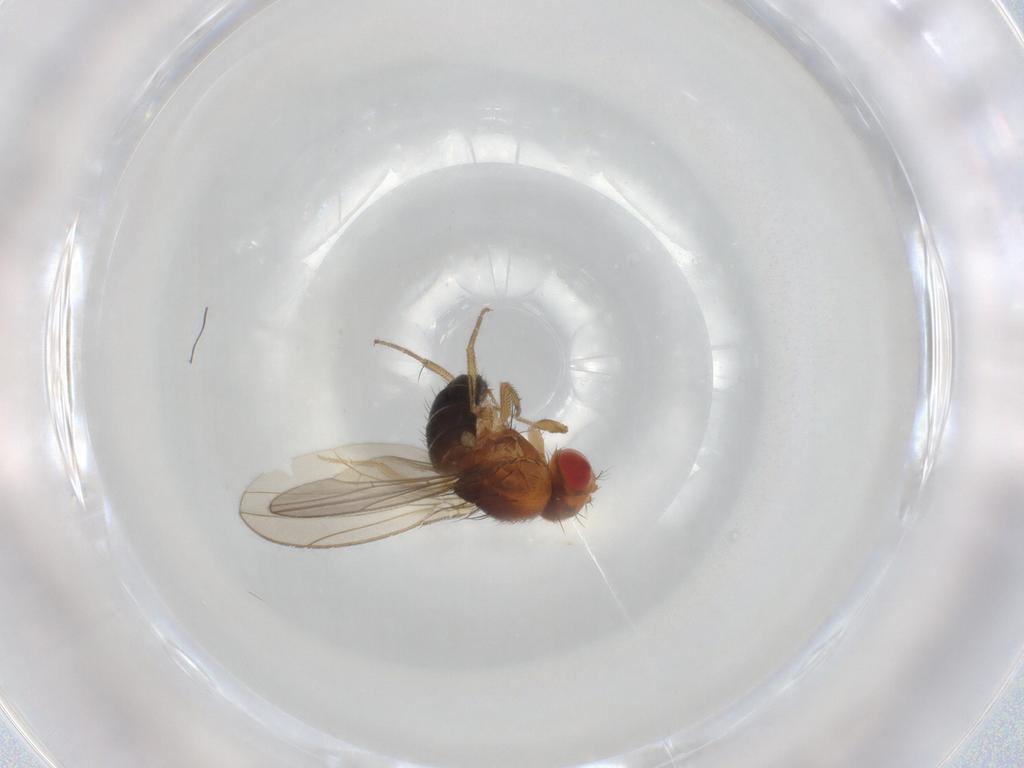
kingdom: Animalia
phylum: Arthropoda
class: Insecta
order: Diptera
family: Drosophilidae
